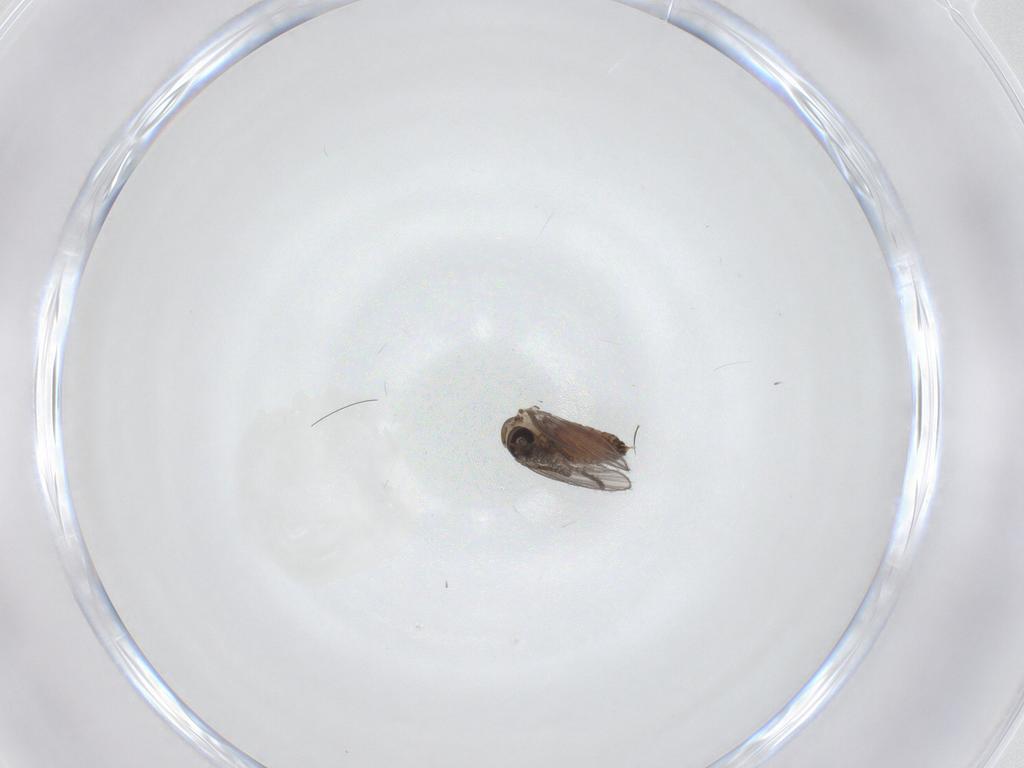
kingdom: Animalia
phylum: Arthropoda
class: Insecta
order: Diptera
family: Psychodidae
